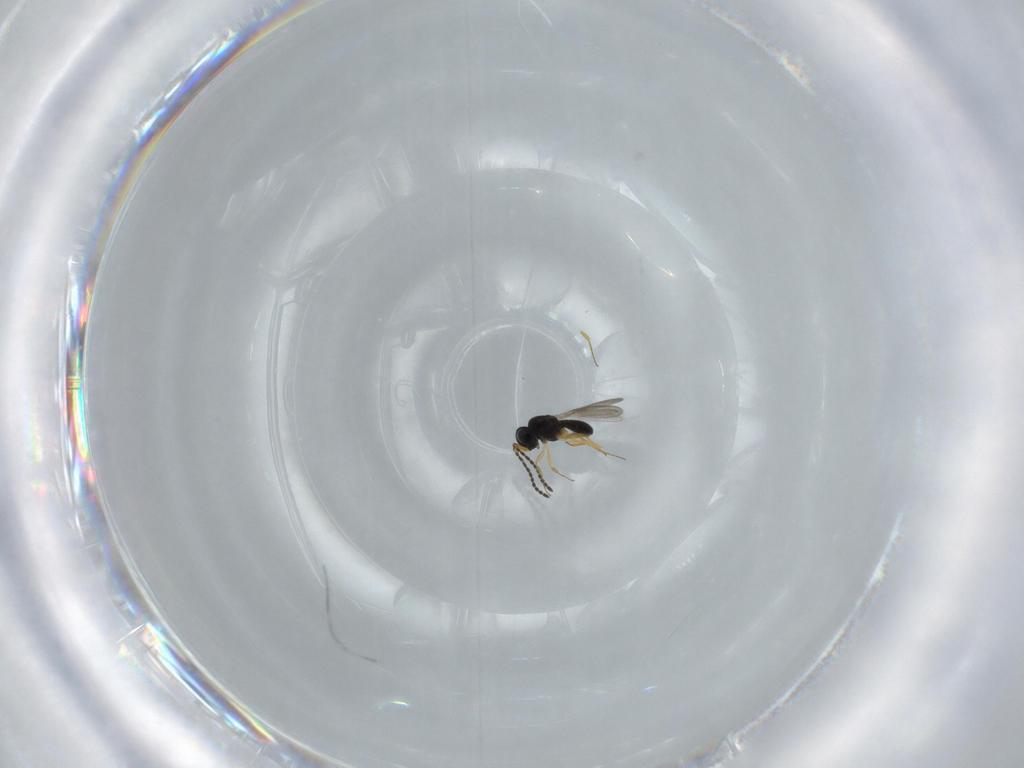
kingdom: Animalia
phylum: Arthropoda
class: Insecta
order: Hymenoptera
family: Scelionidae
